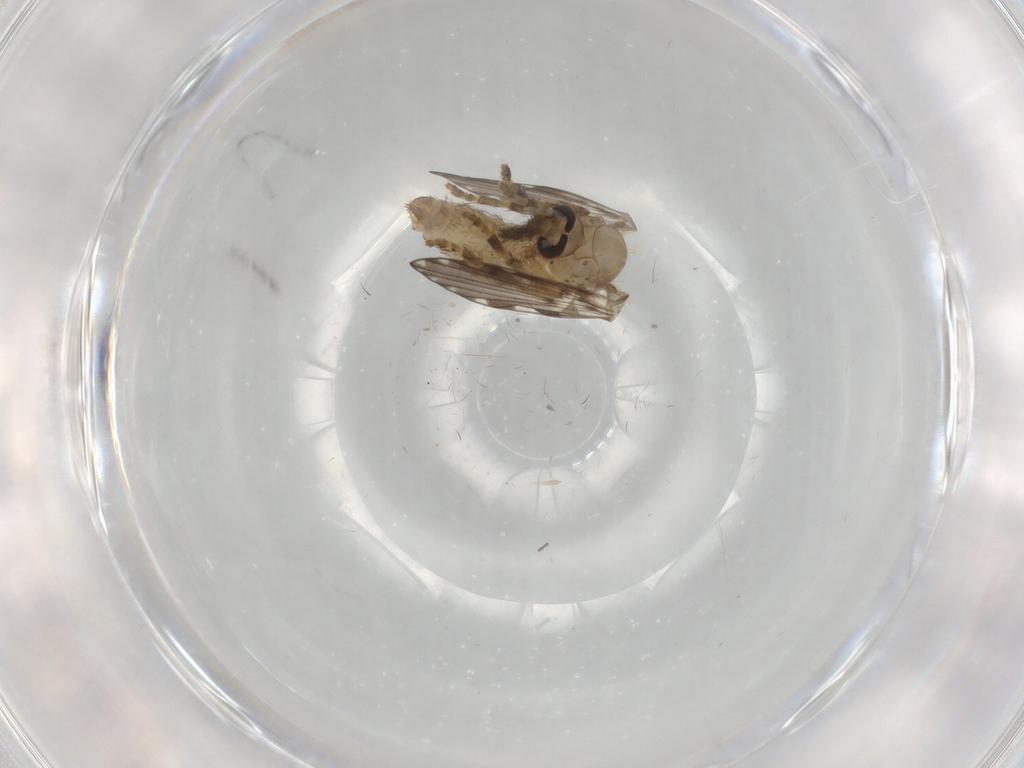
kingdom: Animalia
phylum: Arthropoda
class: Insecta
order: Diptera
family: Psychodidae
